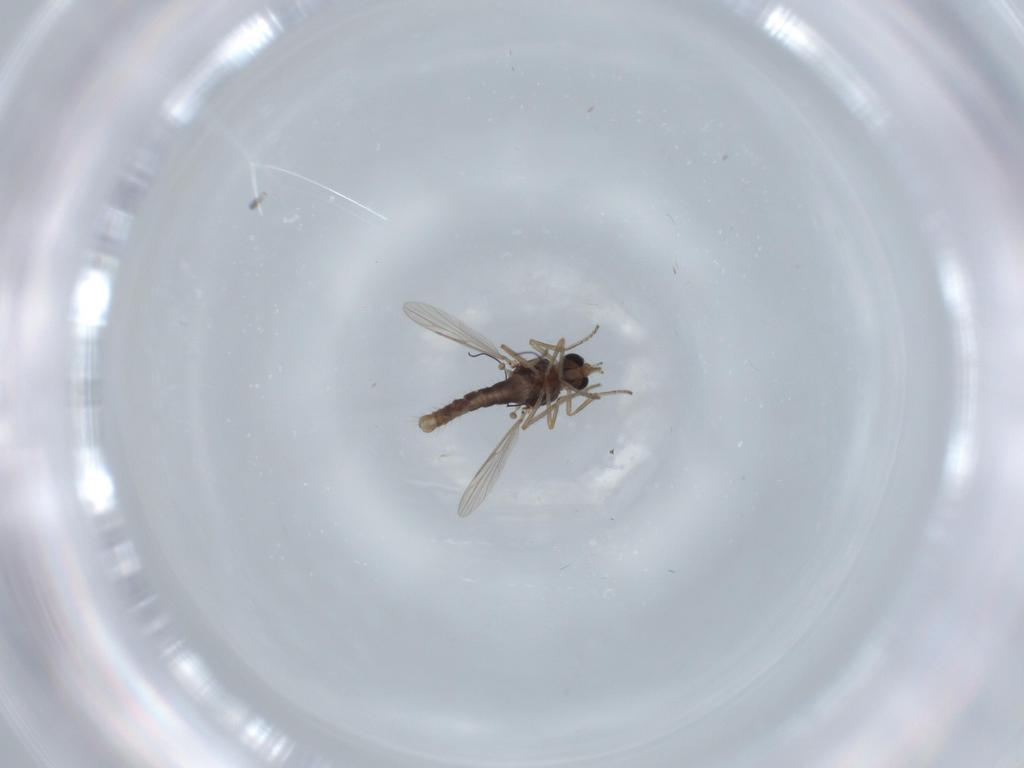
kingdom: Animalia
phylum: Arthropoda
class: Insecta
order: Diptera
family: Ceratopogonidae
